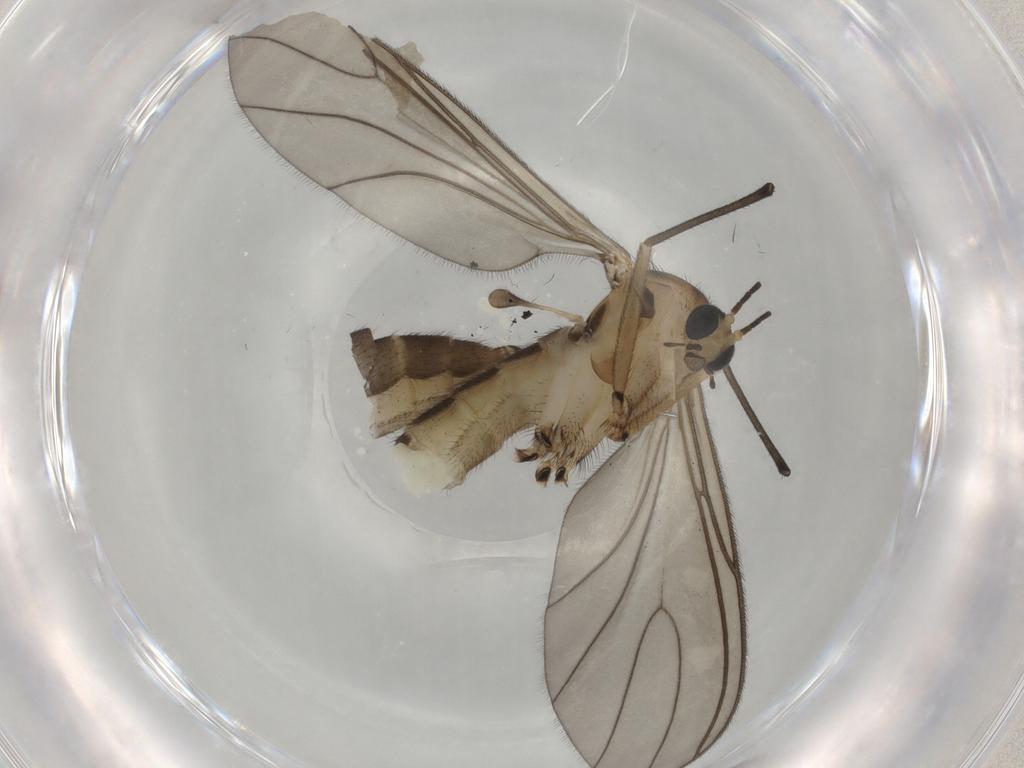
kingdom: Animalia
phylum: Arthropoda
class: Insecta
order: Diptera
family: Sciaridae
